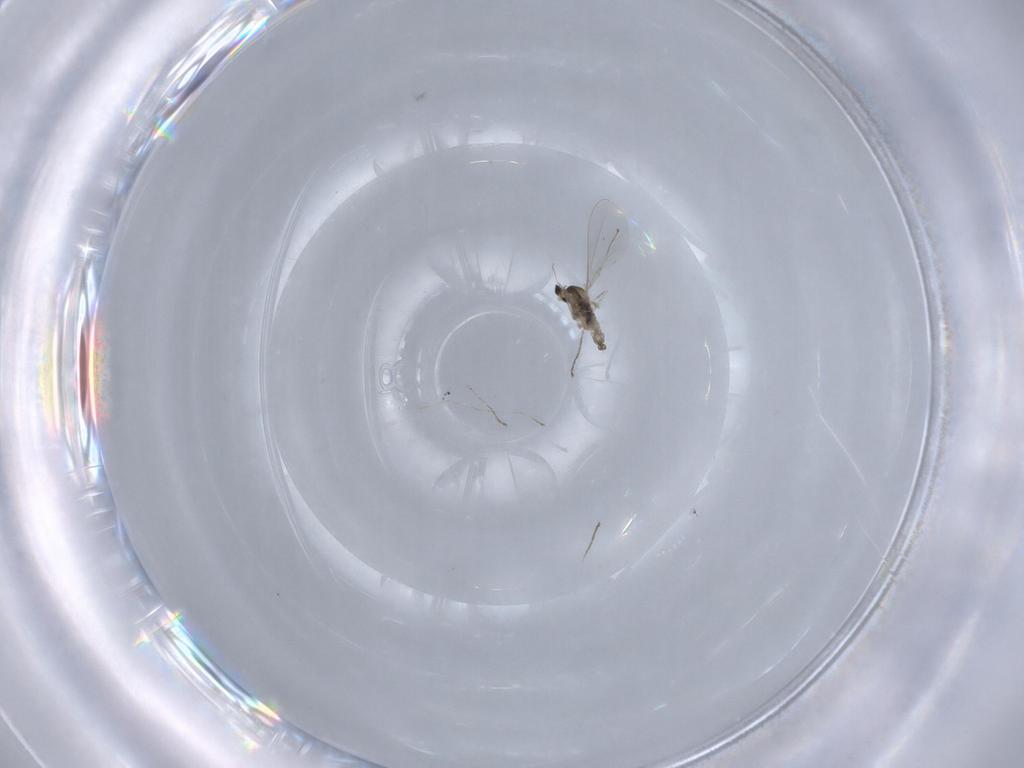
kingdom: Animalia
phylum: Arthropoda
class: Insecta
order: Diptera
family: Cecidomyiidae
